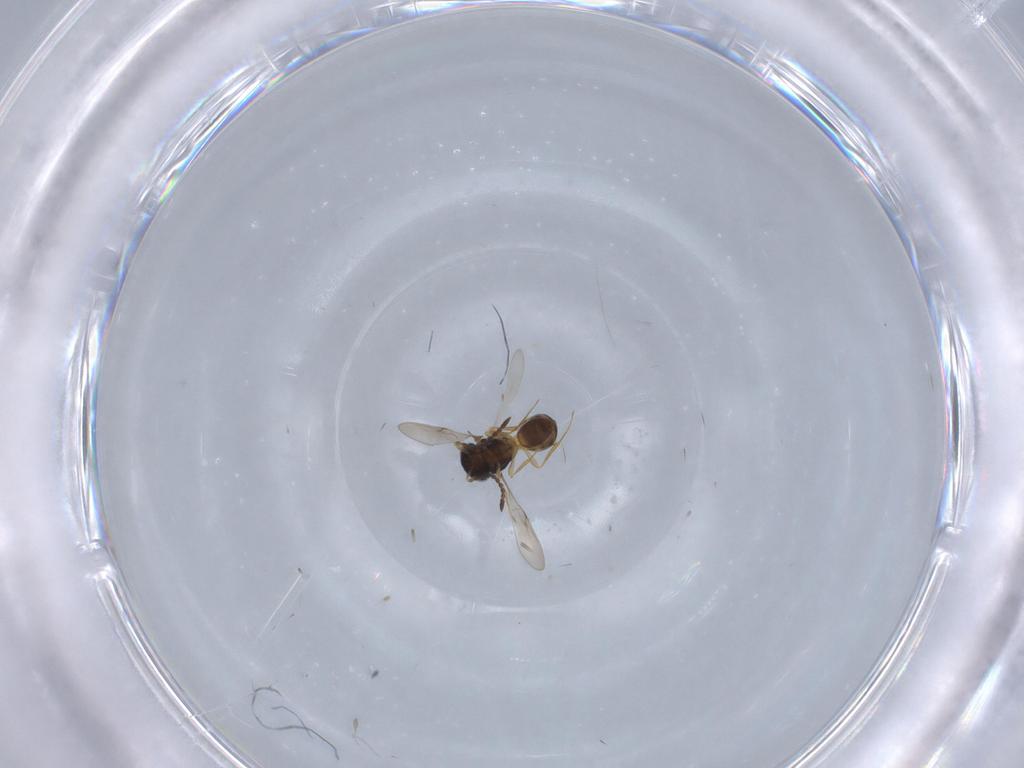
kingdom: Animalia
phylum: Arthropoda
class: Insecta
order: Hymenoptera
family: Scelionidae
